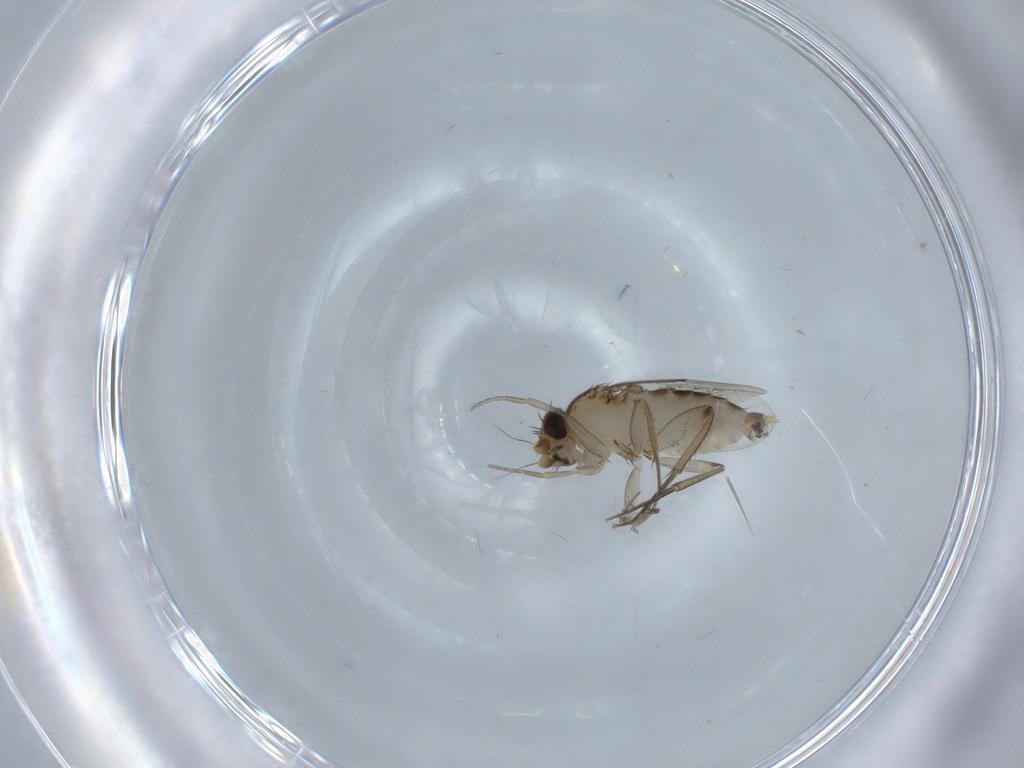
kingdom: Animalia
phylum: Arthropoda
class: Insecta
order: Diptera
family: Phoridae
